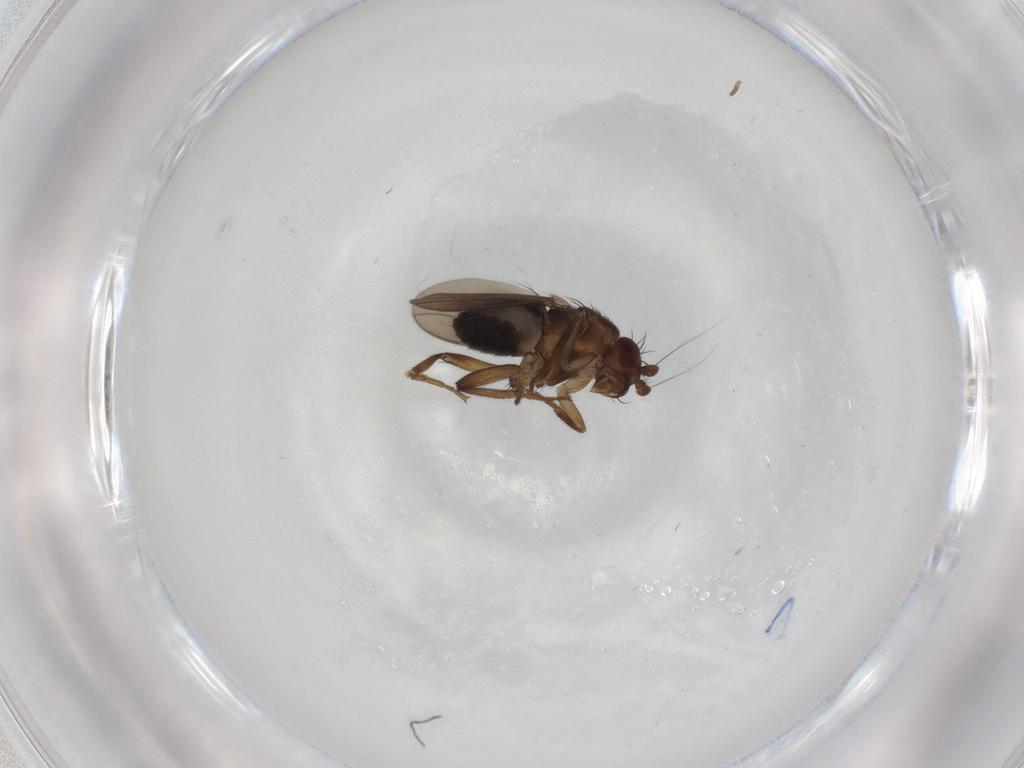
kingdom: Animalia
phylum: Arthropoda
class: Insecta
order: Diptera
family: Sphaeroceridae
